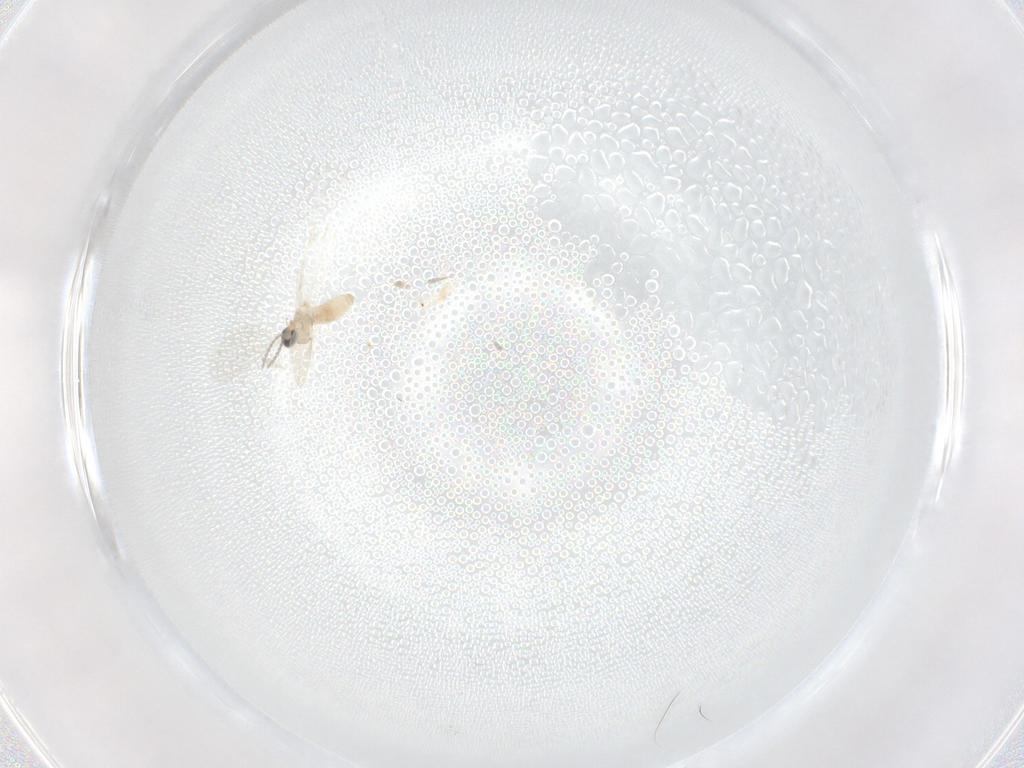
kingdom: Animalia
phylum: Arthropoda
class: Insecta
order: Diptera
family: Cecidomyiidae
